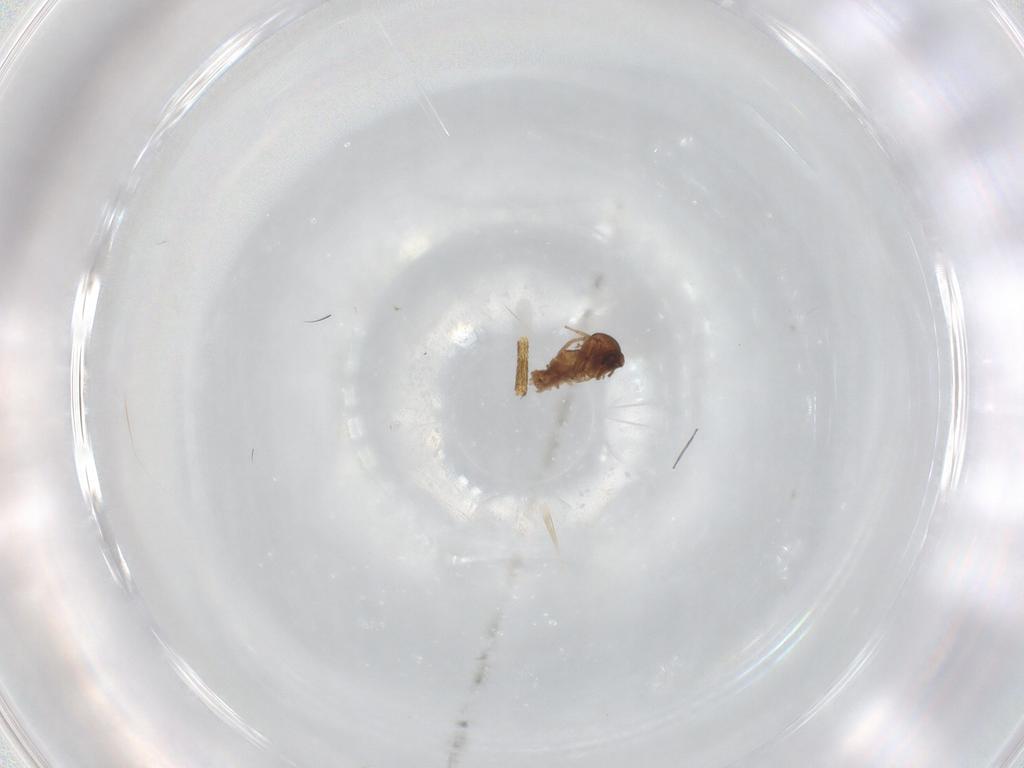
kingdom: Animalia
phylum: Arthropoda
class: Insecta
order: Diptera
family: Ceratopogonidae
